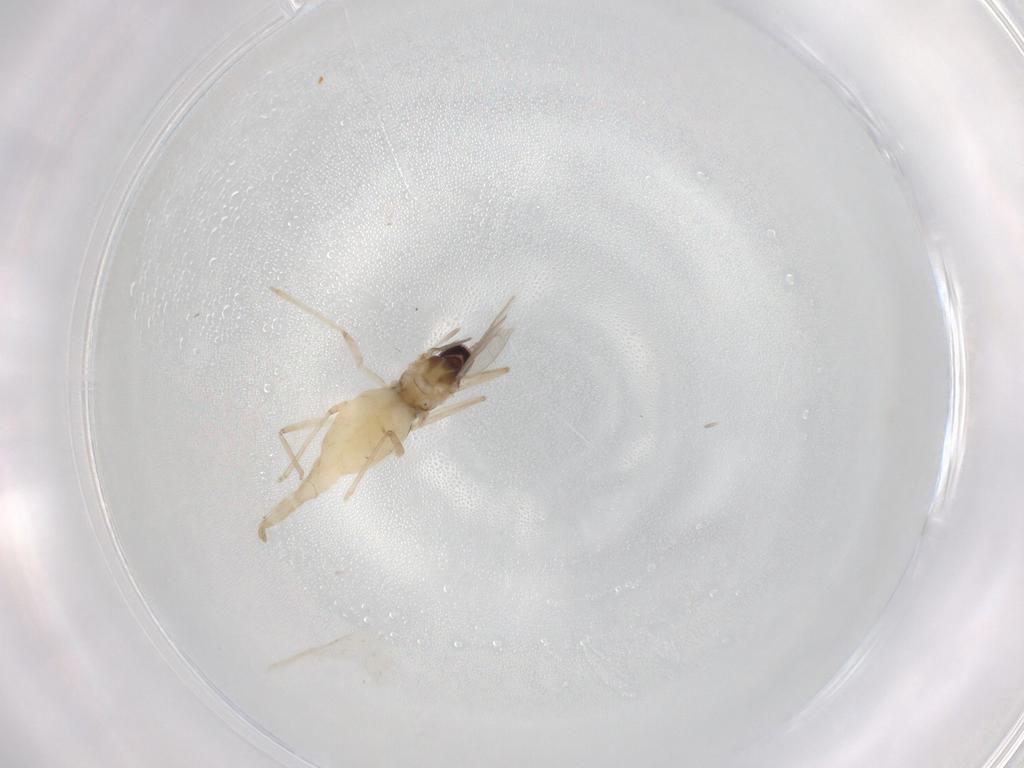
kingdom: Animalia
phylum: Arthropoda
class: Insecta
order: Diptera
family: Cecidomyiidae
